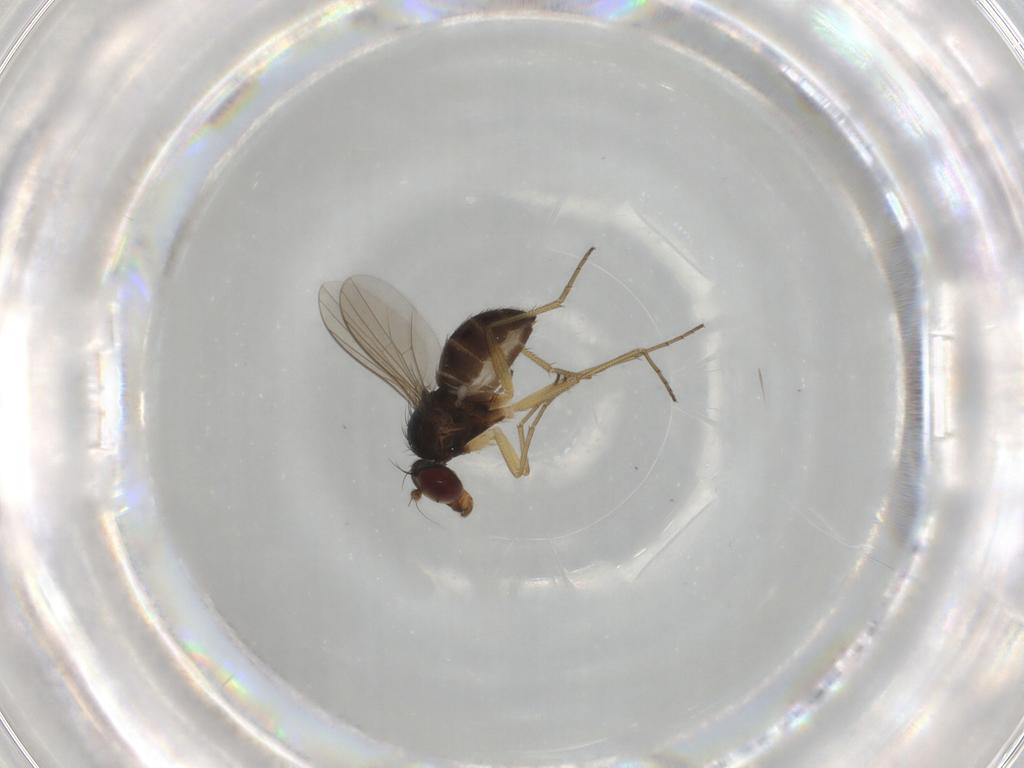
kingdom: Animalia
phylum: Arthropoda
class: Insecta
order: Diptera
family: Dolichopodidae
